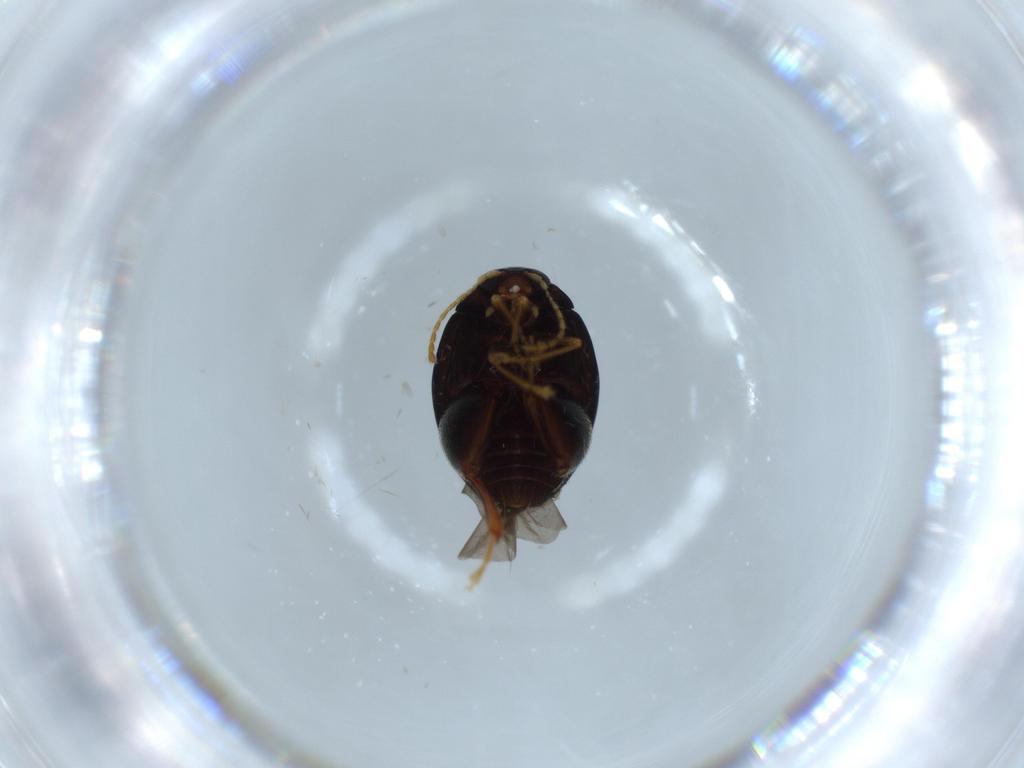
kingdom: Animalia
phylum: Arthropoda
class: Insecta
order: Coleoptera
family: Chrysomelidae
